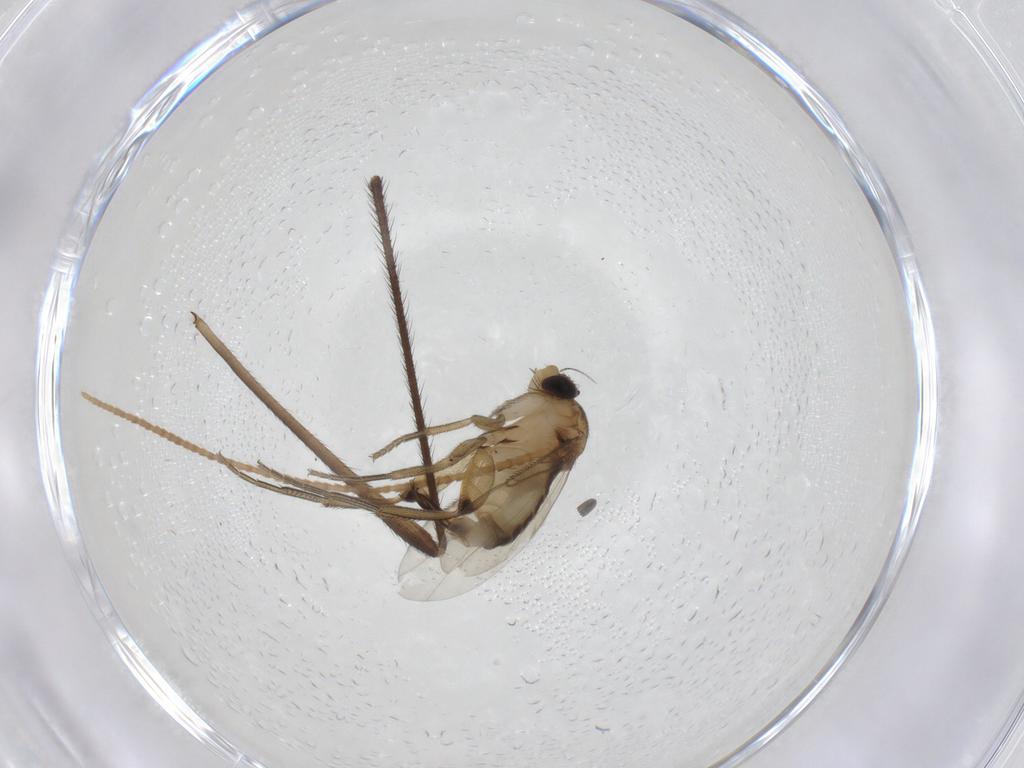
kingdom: Animalia
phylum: Arthropoda
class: Insecta
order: Diptera
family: Phoridae
